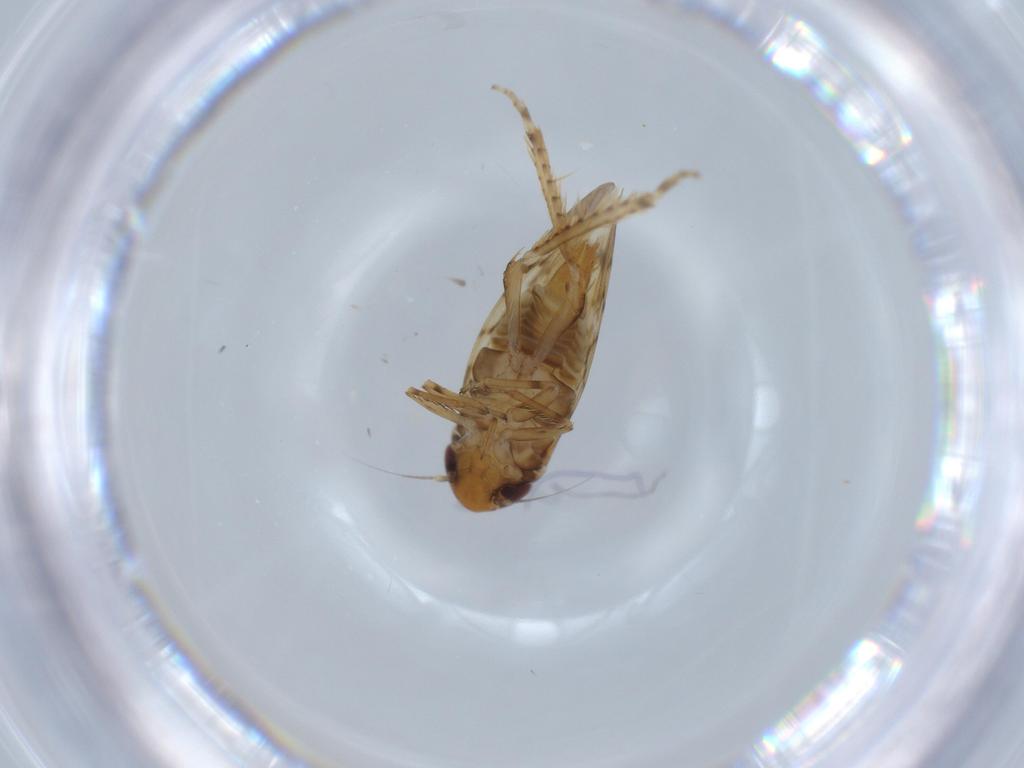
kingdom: Animalia
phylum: Arthropoda
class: Insecta
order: Hemiptera
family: Cicadellidae
